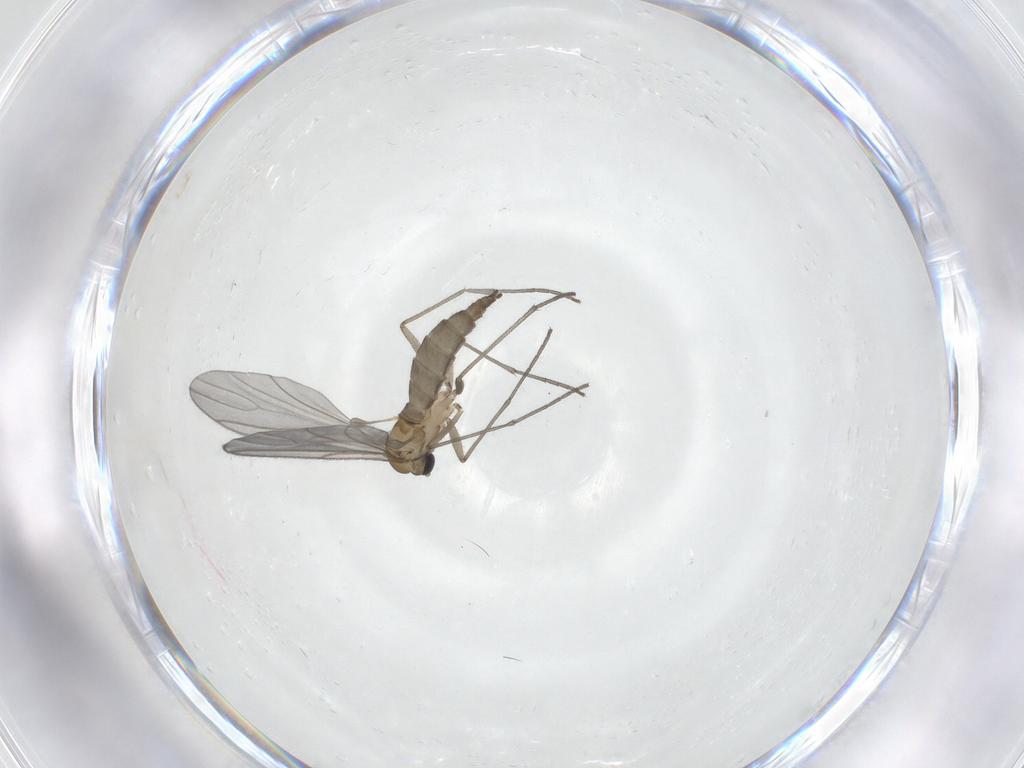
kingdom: Animalia
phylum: Arthropoda
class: Insecta
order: Diptera
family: Sciaridae
